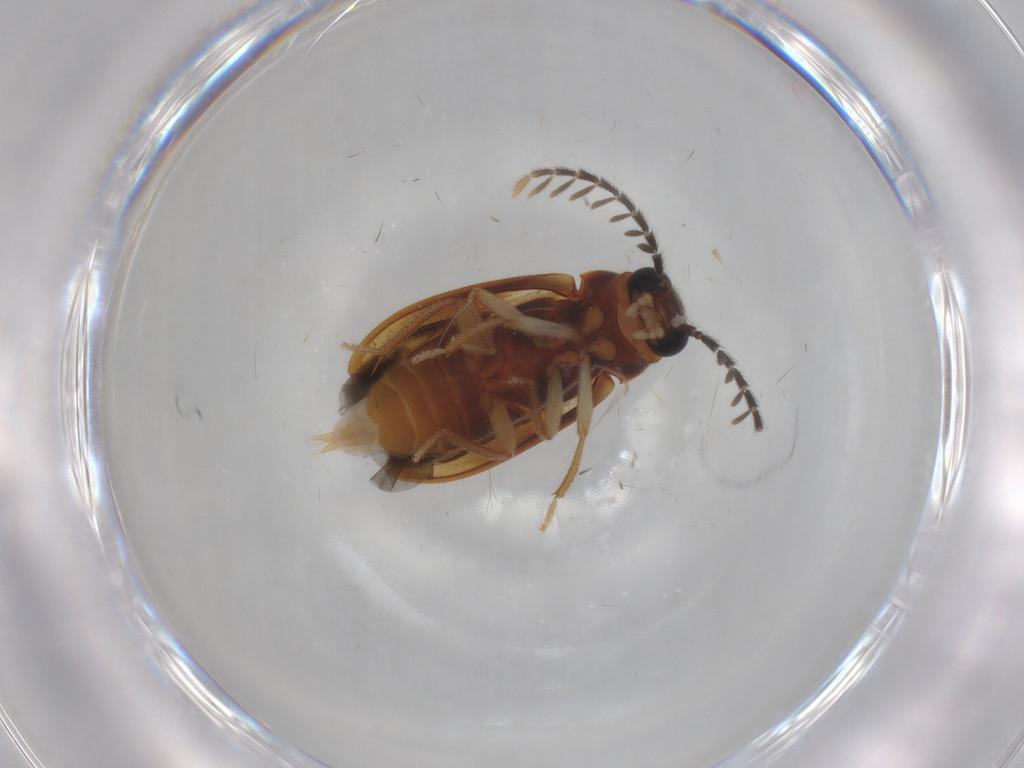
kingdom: Animalia
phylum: Arthropoda
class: Insecta
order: Coleoptera
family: Ptilodactylidae
